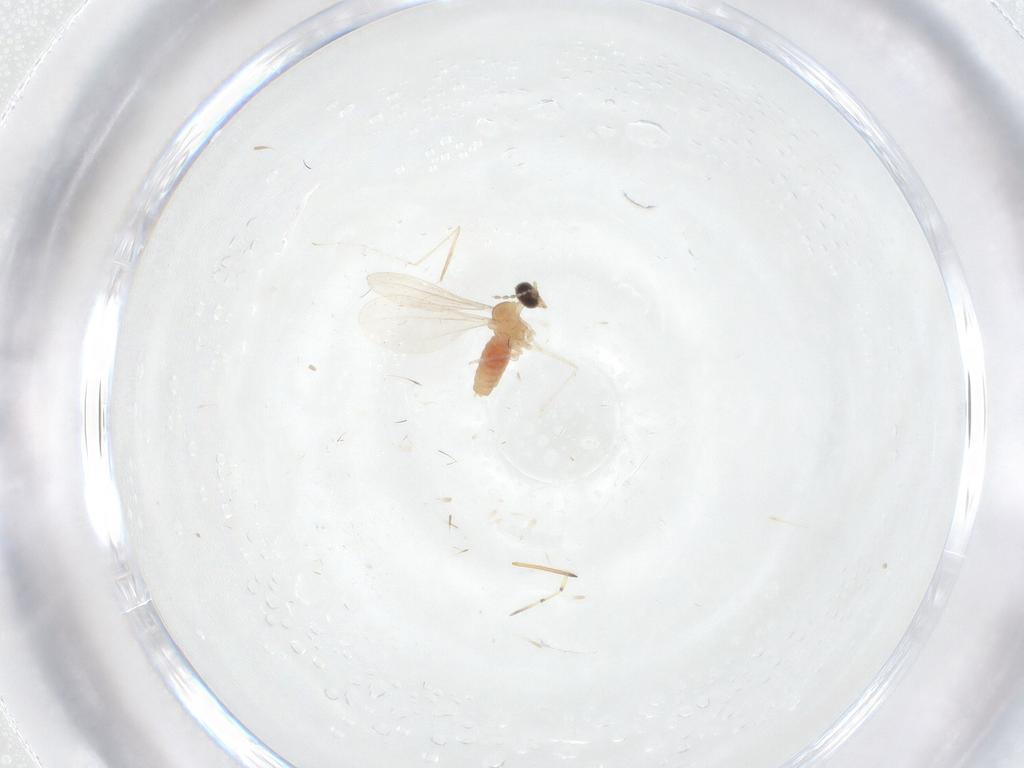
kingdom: Animalia
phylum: Arthropoda
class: Insecta
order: Diptera
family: Cecidomyiidae
